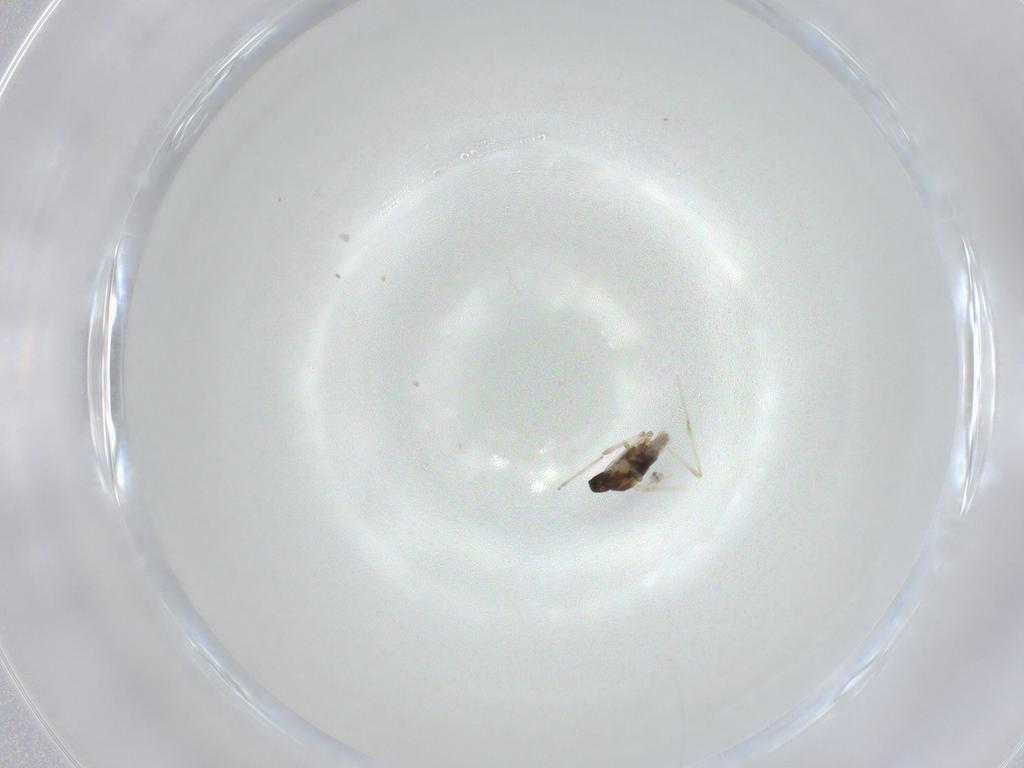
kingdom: Animalia
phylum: Arthropoda
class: Insecta
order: Diptera
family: Cecidomyiidae
